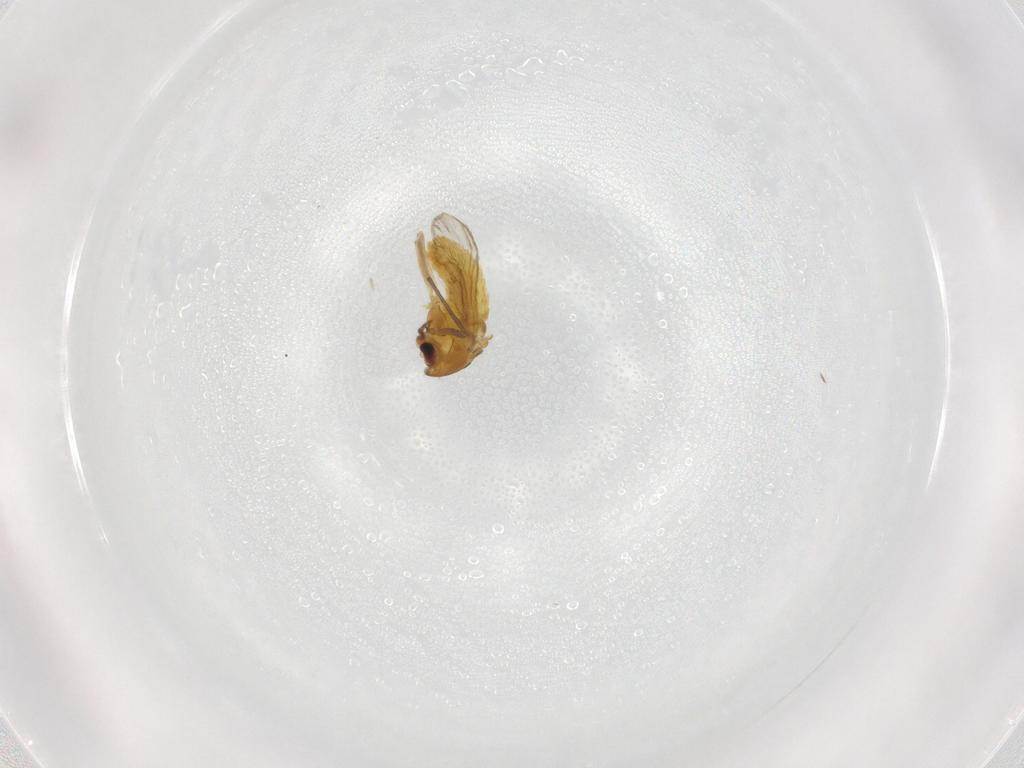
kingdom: Animalia
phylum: Arthropoda
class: Insecta
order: Diptera
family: Chironomidae
